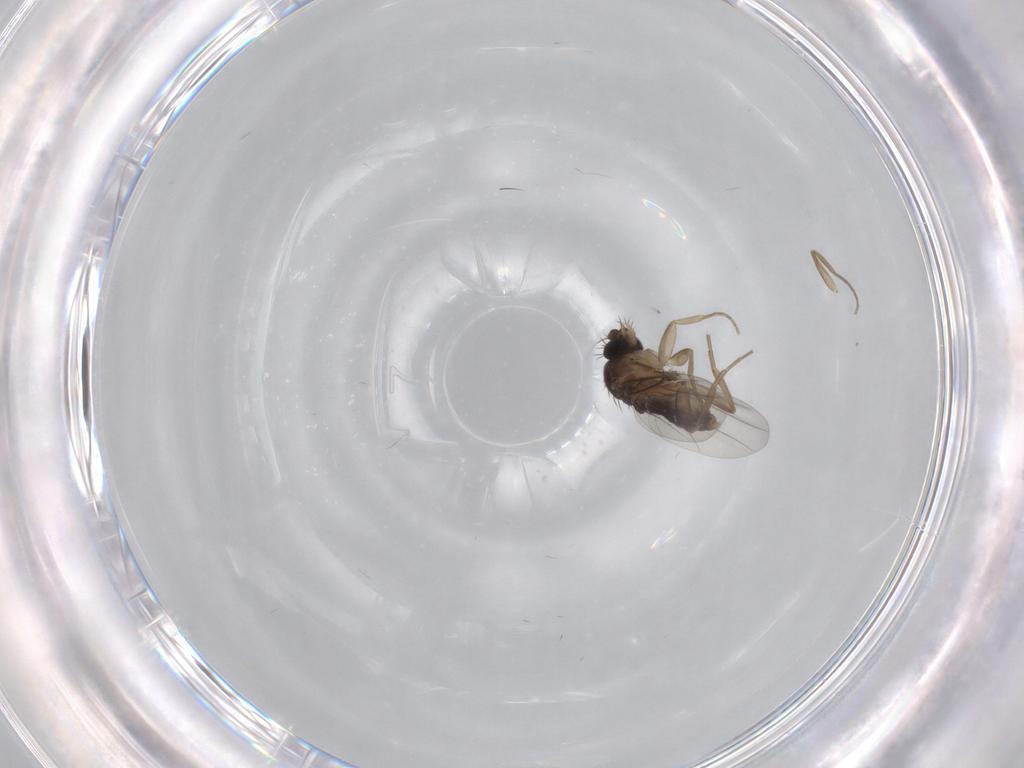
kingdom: Animalia
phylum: Arthropoda
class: Insecta
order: Diptera
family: Phoridae
